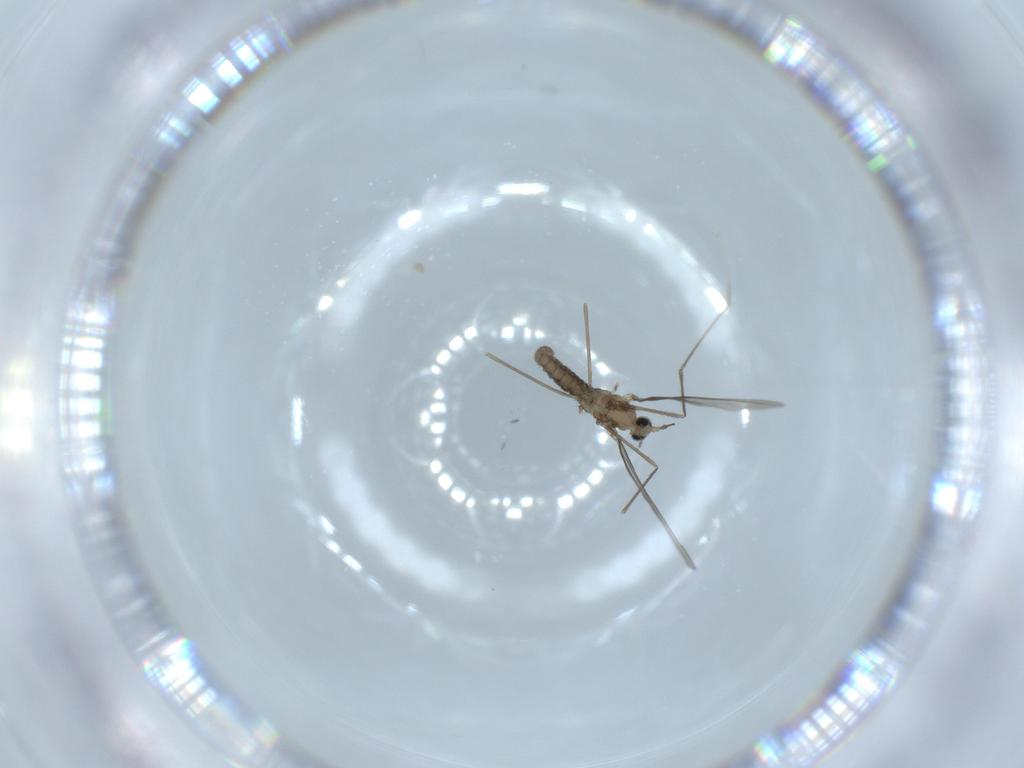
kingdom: Animalia
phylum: Arthropoda
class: Insecta
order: Diptera
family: Cecidomyiidae
